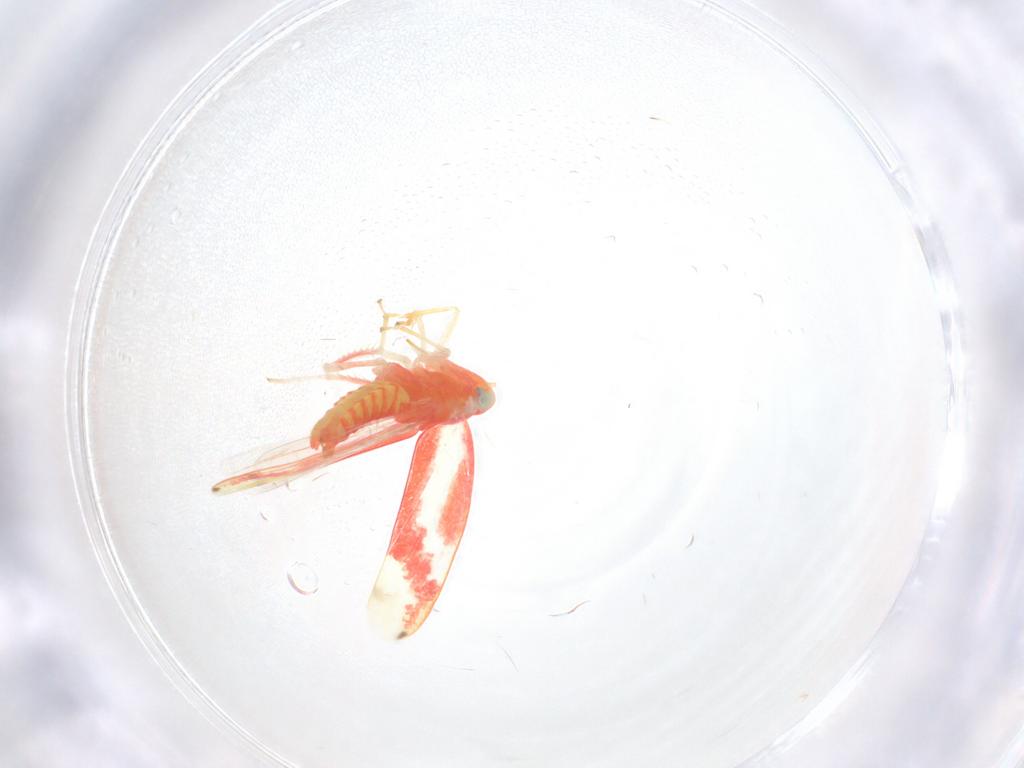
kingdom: Animalia
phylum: Arthropoda
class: Insecta
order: Hemiptera
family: Cicadellidae
